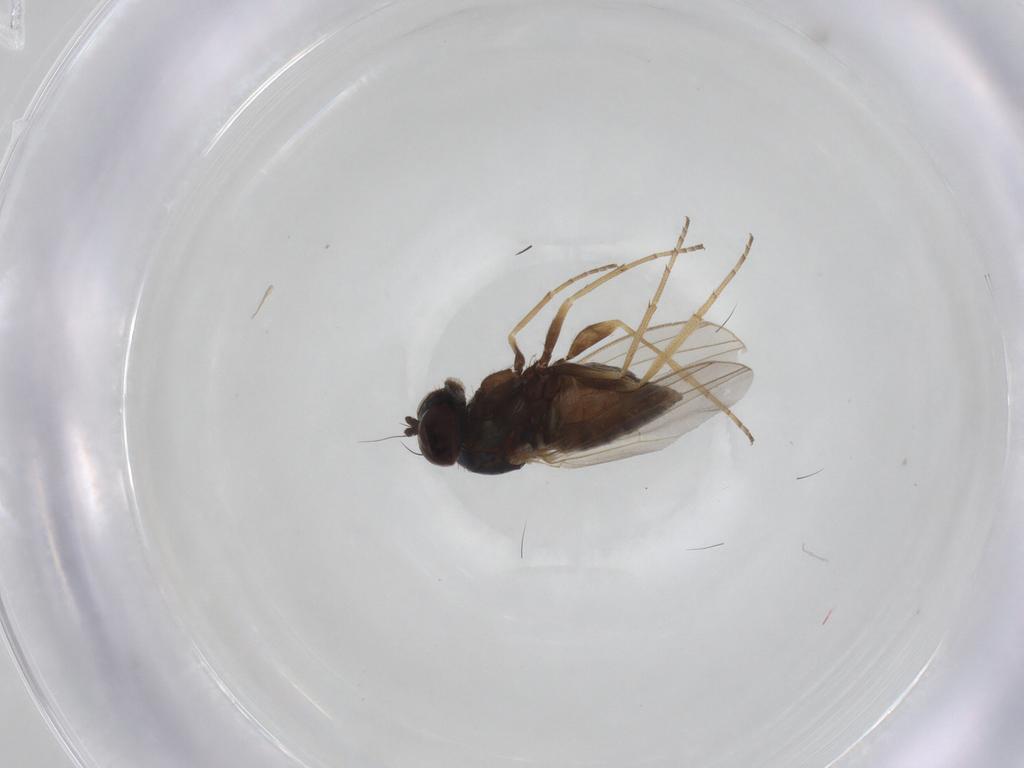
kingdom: Animalia
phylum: Arthropoda
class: Insecta
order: Diptera
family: Dolichopodidae
